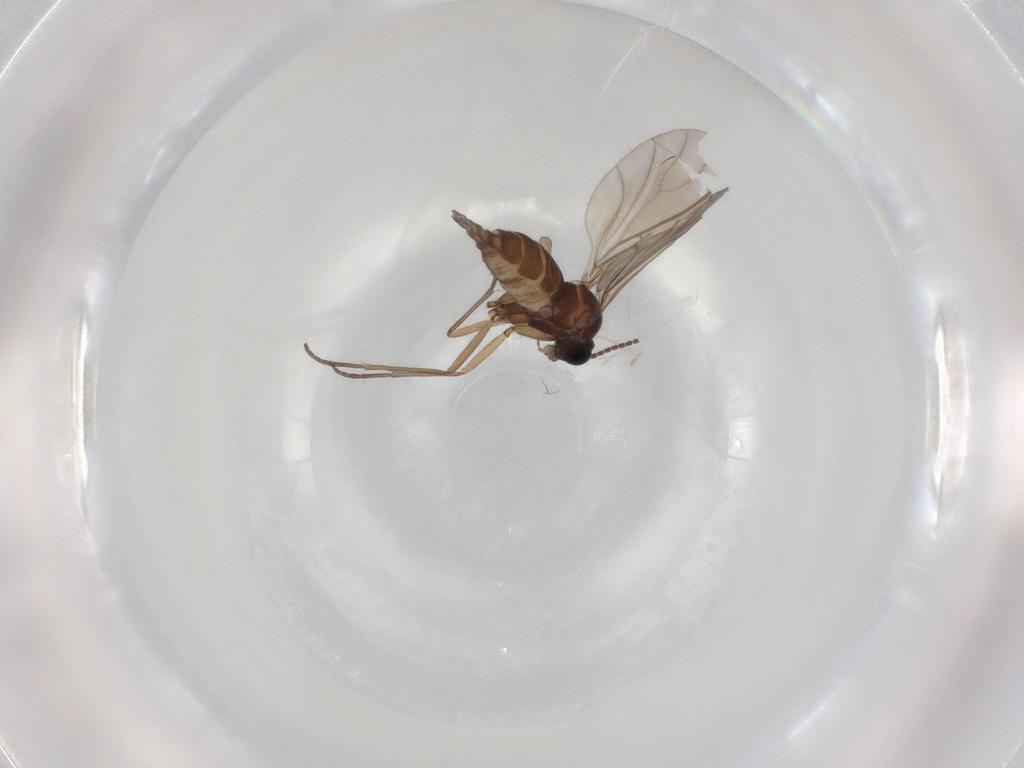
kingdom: Animalia
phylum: Arthropoda
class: Insecta
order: Diptera
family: Sciaridae
